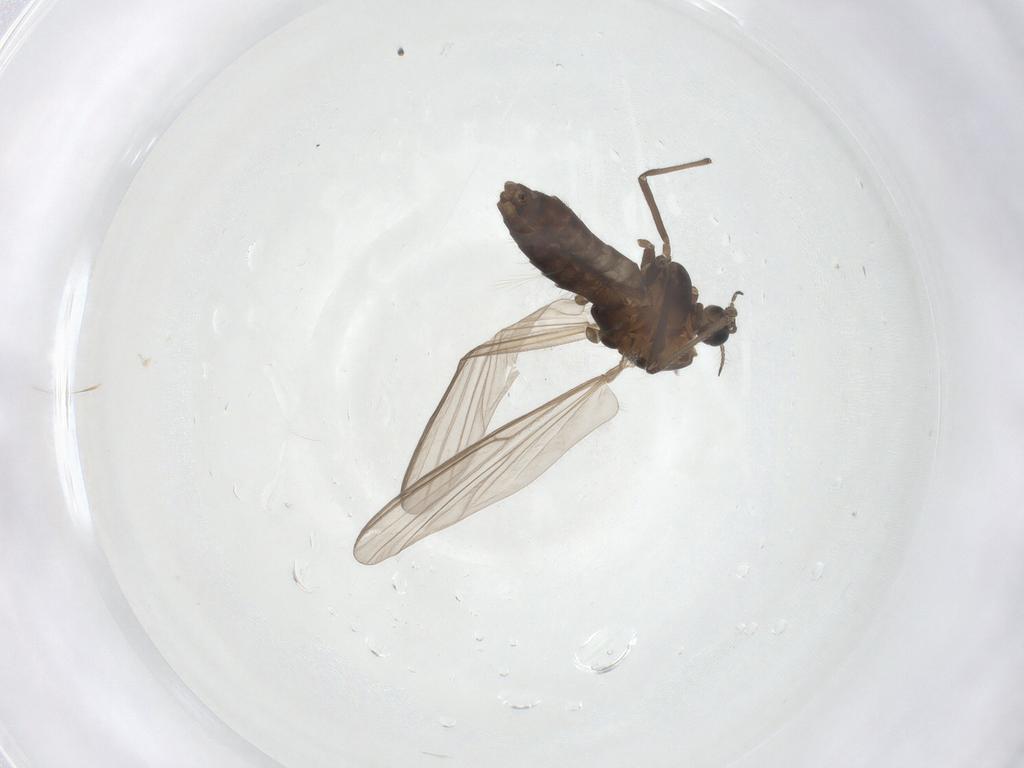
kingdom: Animalia
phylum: Arthropoda
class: Insecta
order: Diptera
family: Chironomidae
